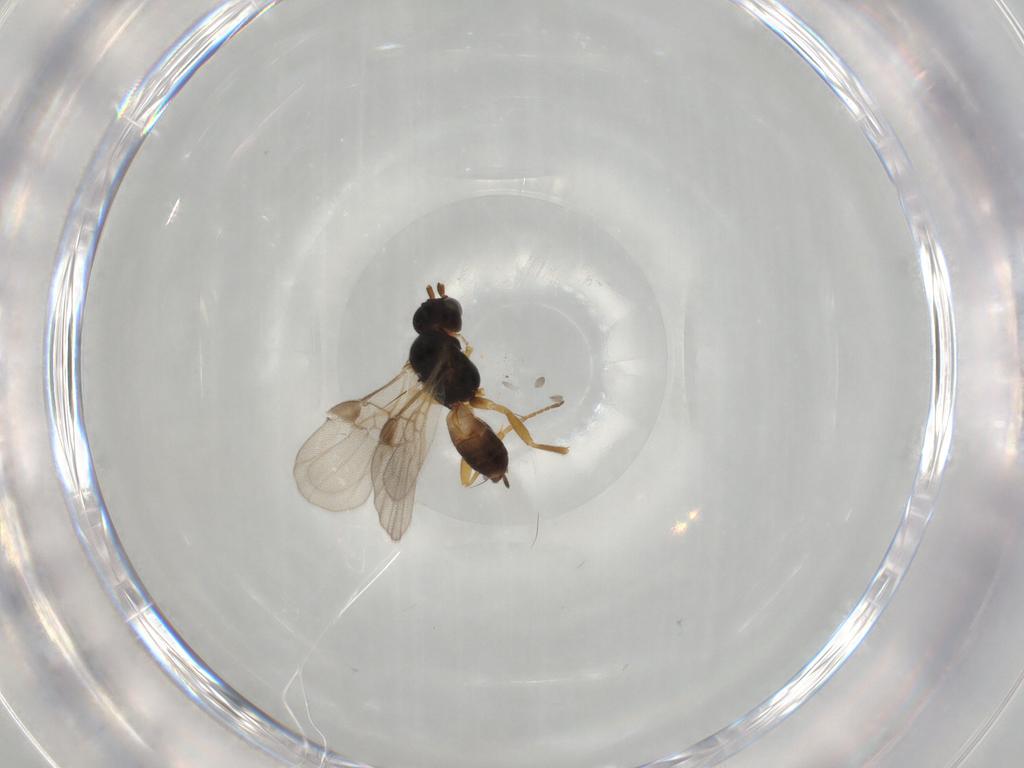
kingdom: Animalia
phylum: Arthropoda
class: Insecta
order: Hymenoptera
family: Braconidae
